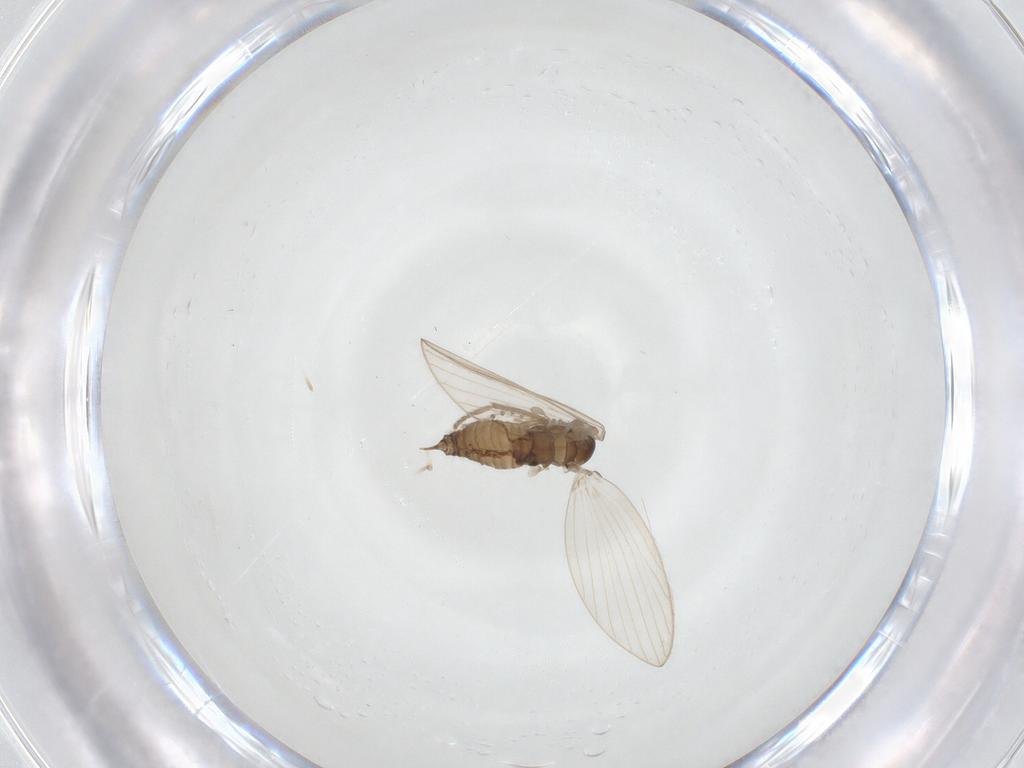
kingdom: Animalia
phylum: Arthropoda
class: Insecta
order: Diptera
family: Psychodidae
